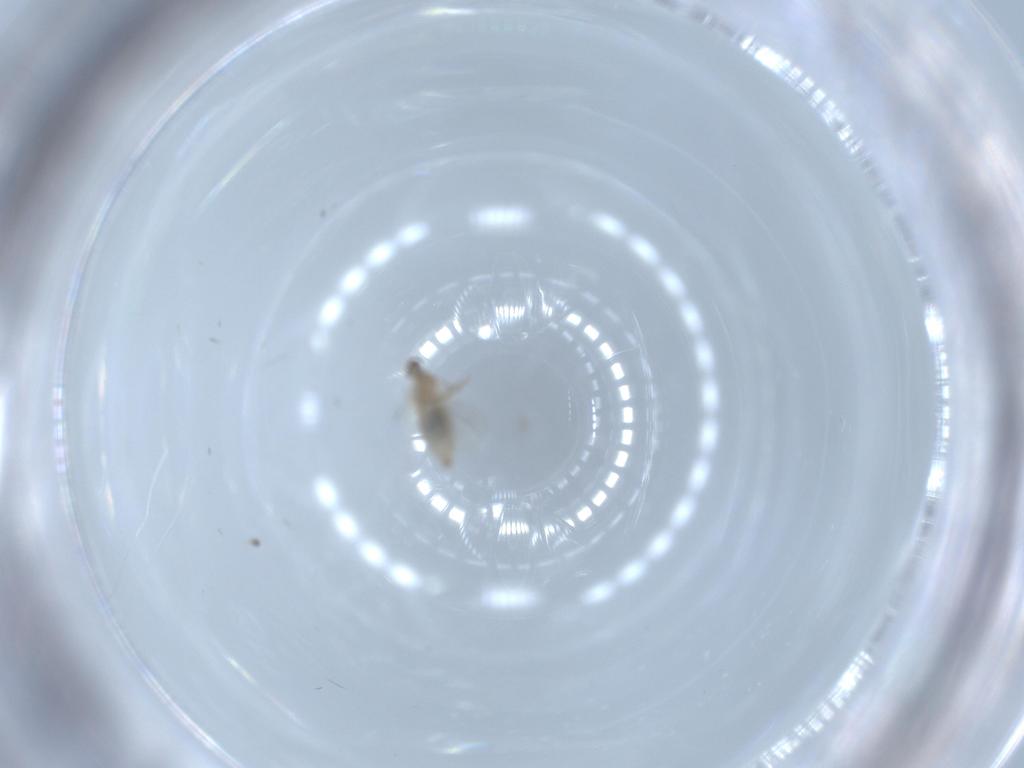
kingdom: Animalia
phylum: Arthropoda
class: Insecta
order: Diptera
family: Cecidomyiidae
